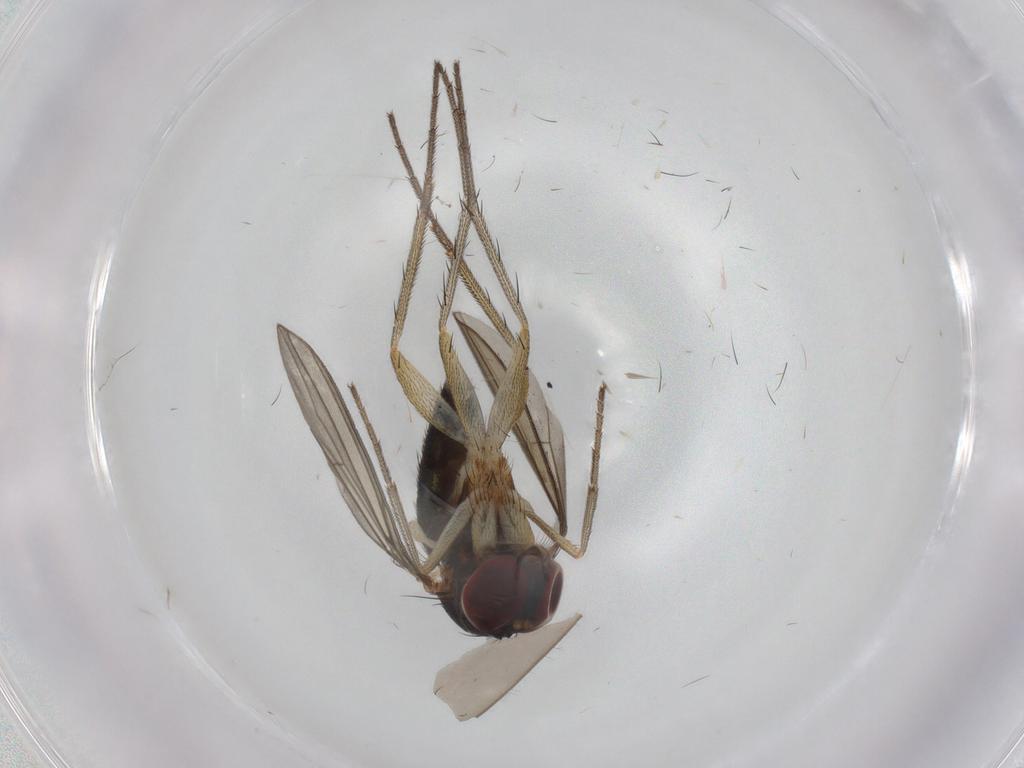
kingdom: Animalia
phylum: Arthropoda
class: Insecta
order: Diptera
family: Dolichopodidae
